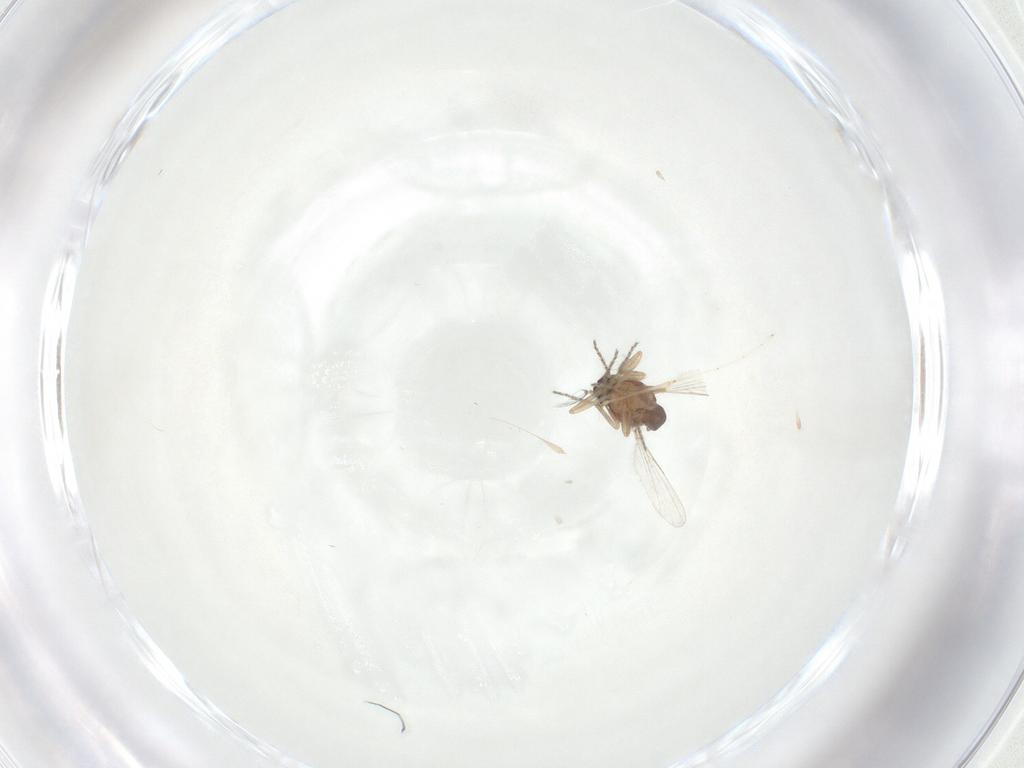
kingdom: Animalia
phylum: Arthropoda
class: Insecta
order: Diptera
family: Ceratopogonidae
